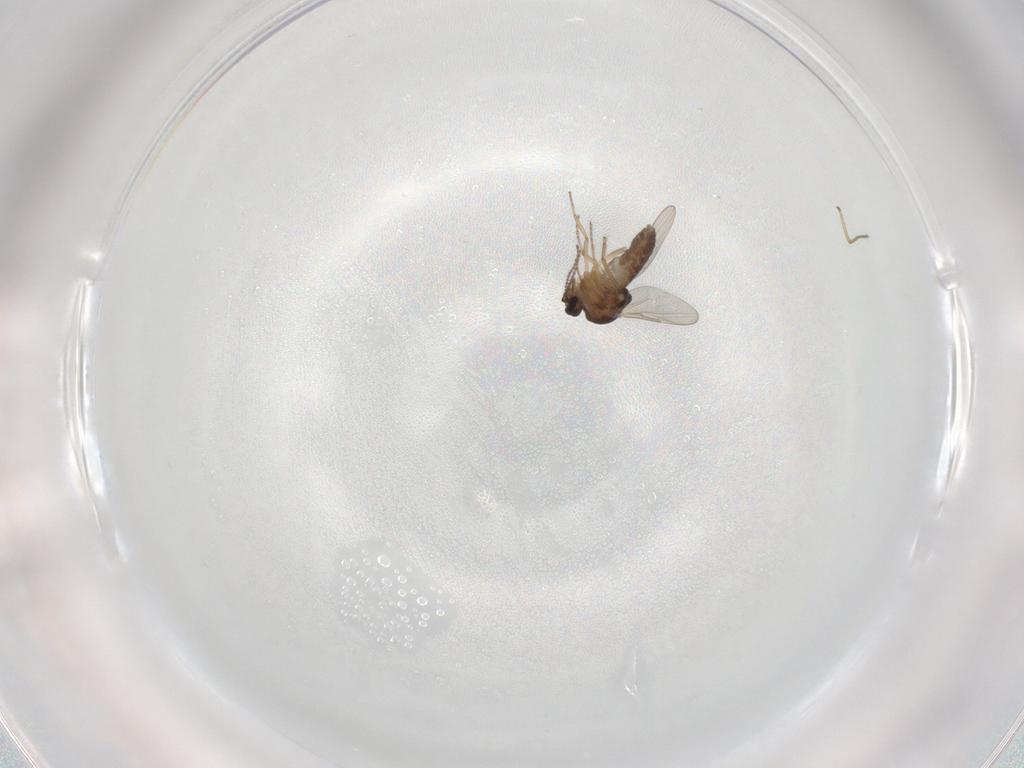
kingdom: Animalia
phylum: Arthropoda
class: Insecta
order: Diptera
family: Ceratopogonidae
